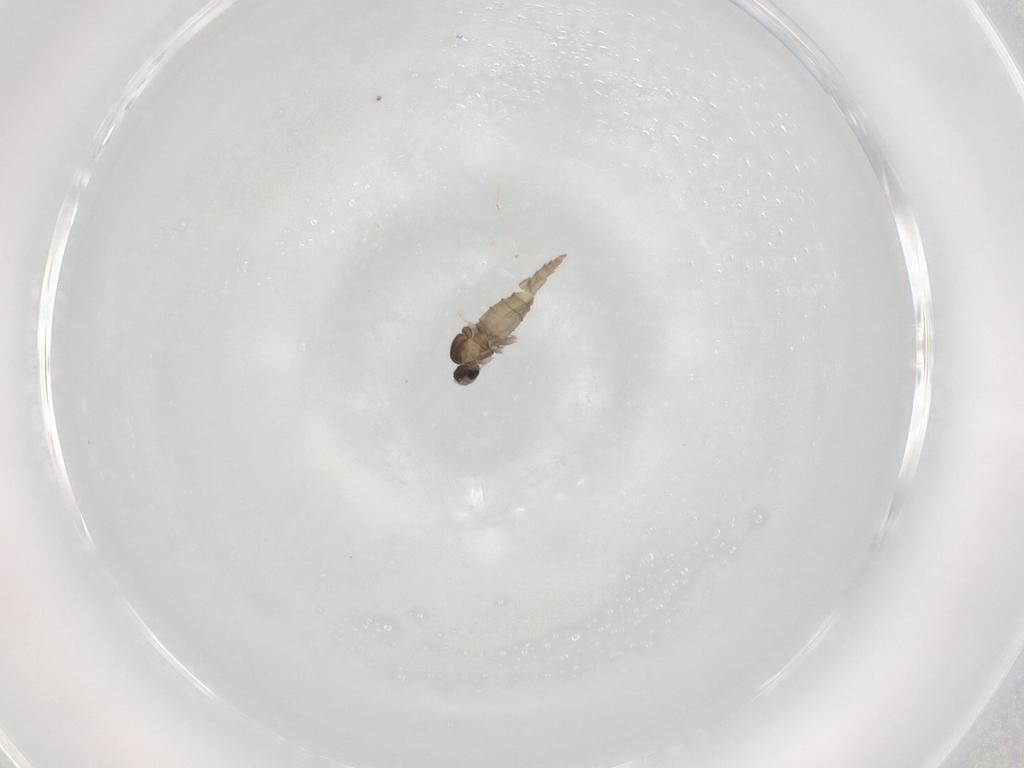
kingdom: Animalia
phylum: Arthropoda
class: Insecta
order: Diptera
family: Cecidomyiidae
